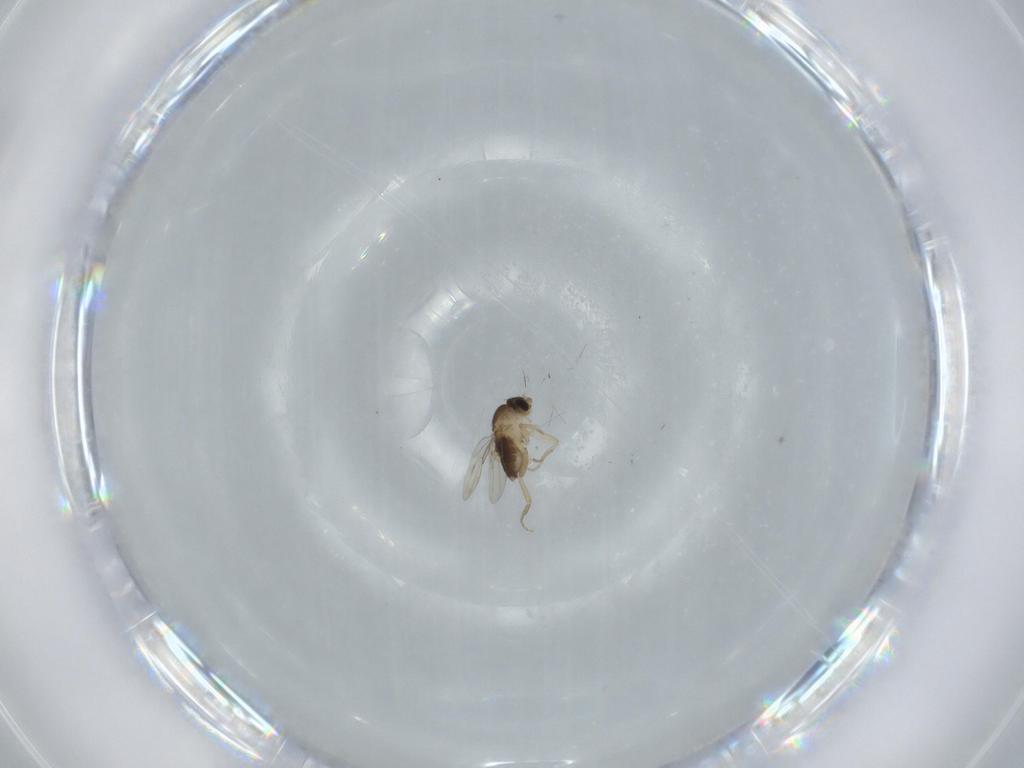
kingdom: Animalia
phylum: Arthropoda
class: Insecta
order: Diptera
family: Phoridae
